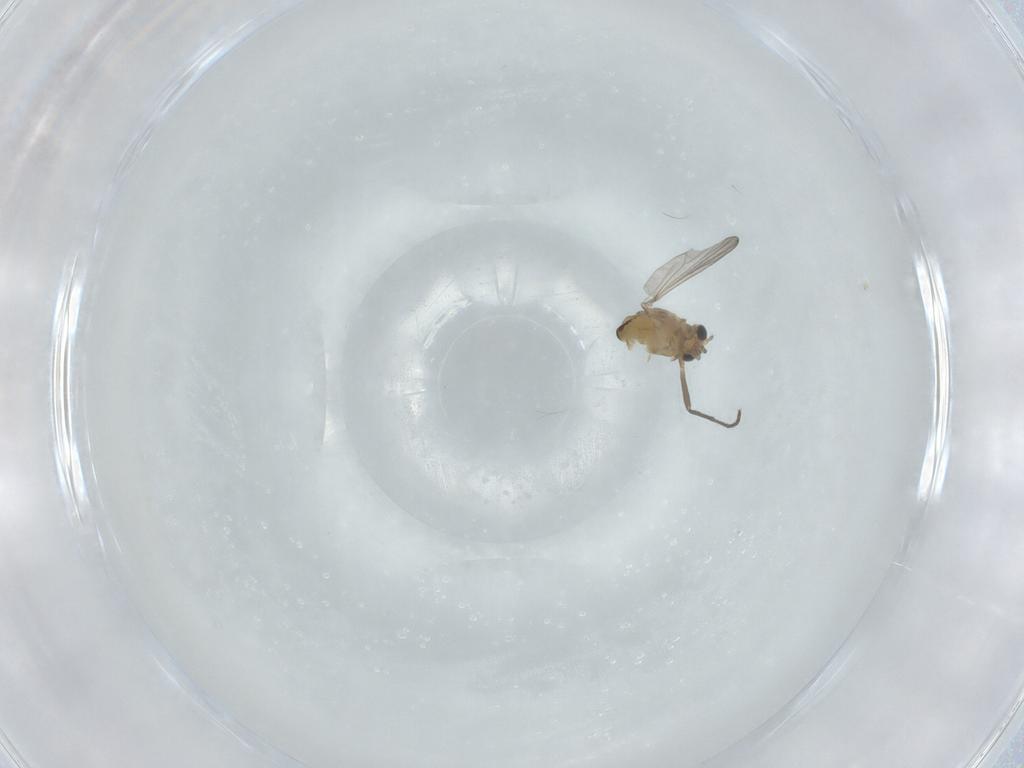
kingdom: Animalia
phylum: Arthropoda
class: Insecta
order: Diptera
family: Chironomidae
